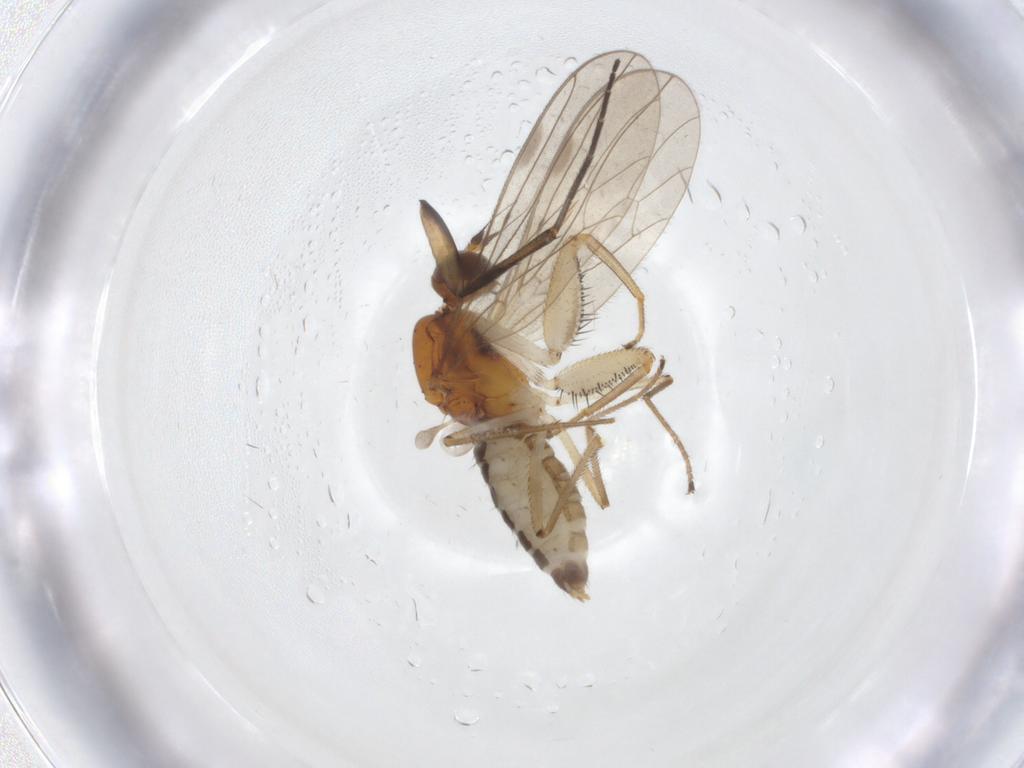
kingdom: Animalia
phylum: Arthropoda
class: Insecta
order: Diptera
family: Empididae
